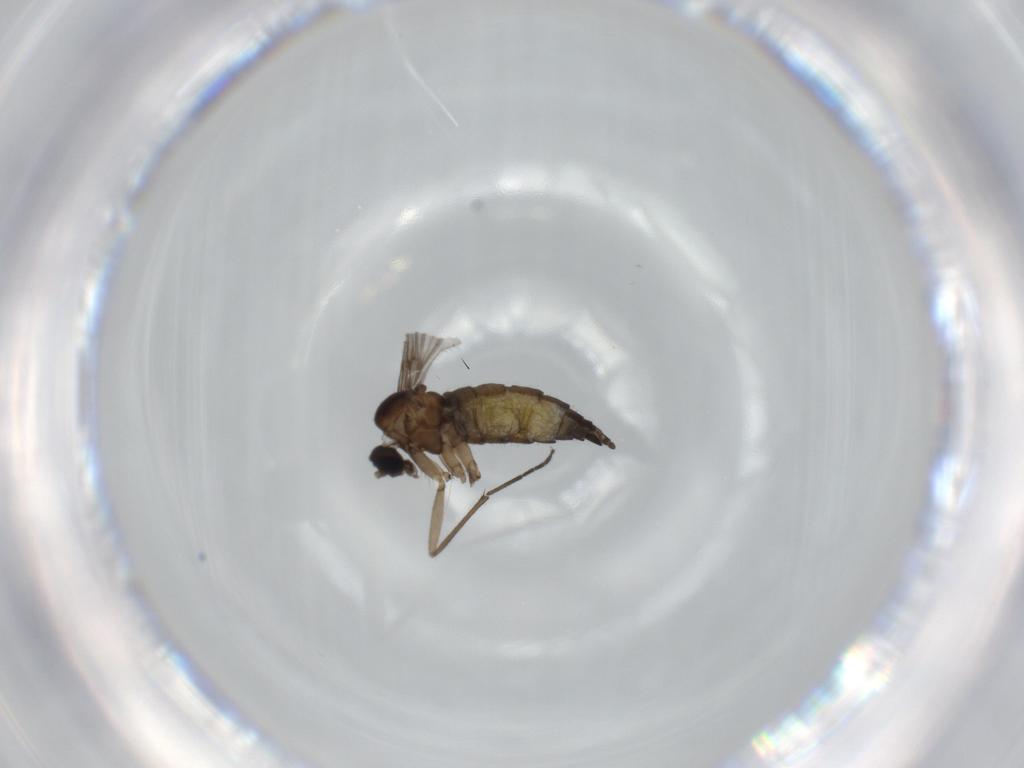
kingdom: Animalia
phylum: Arthropoda
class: Insecta
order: Diptera
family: Sciaridae
